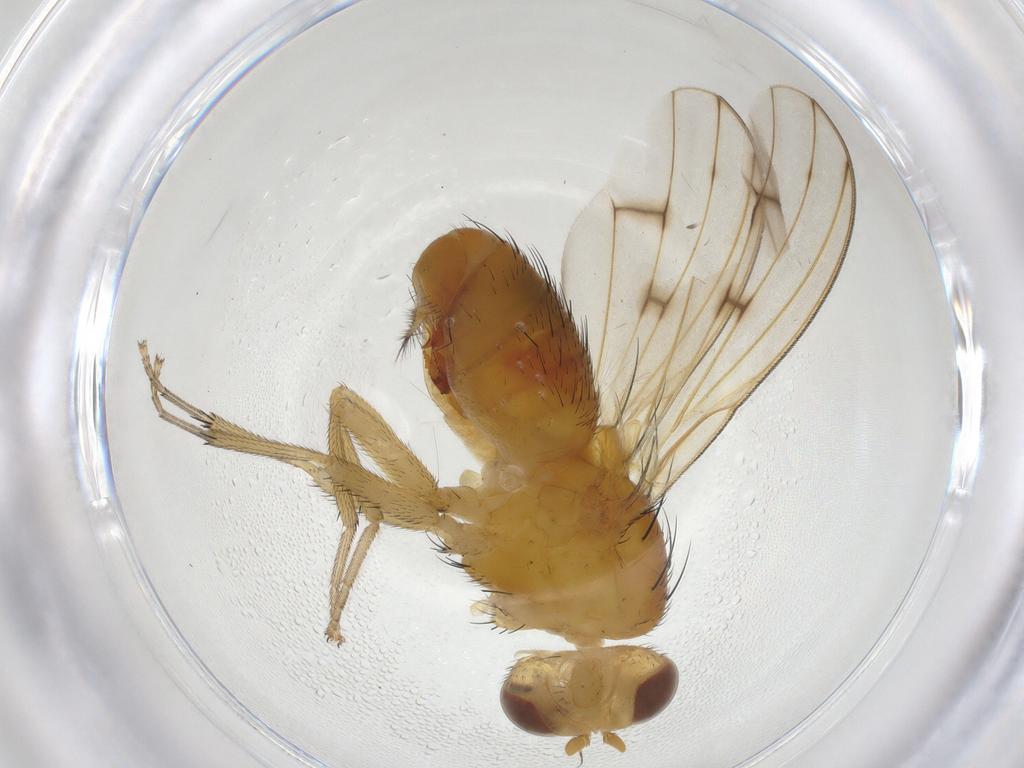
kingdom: Animalia
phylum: Arthropoda
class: Insecta
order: Diptera
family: Lauxaniidae
